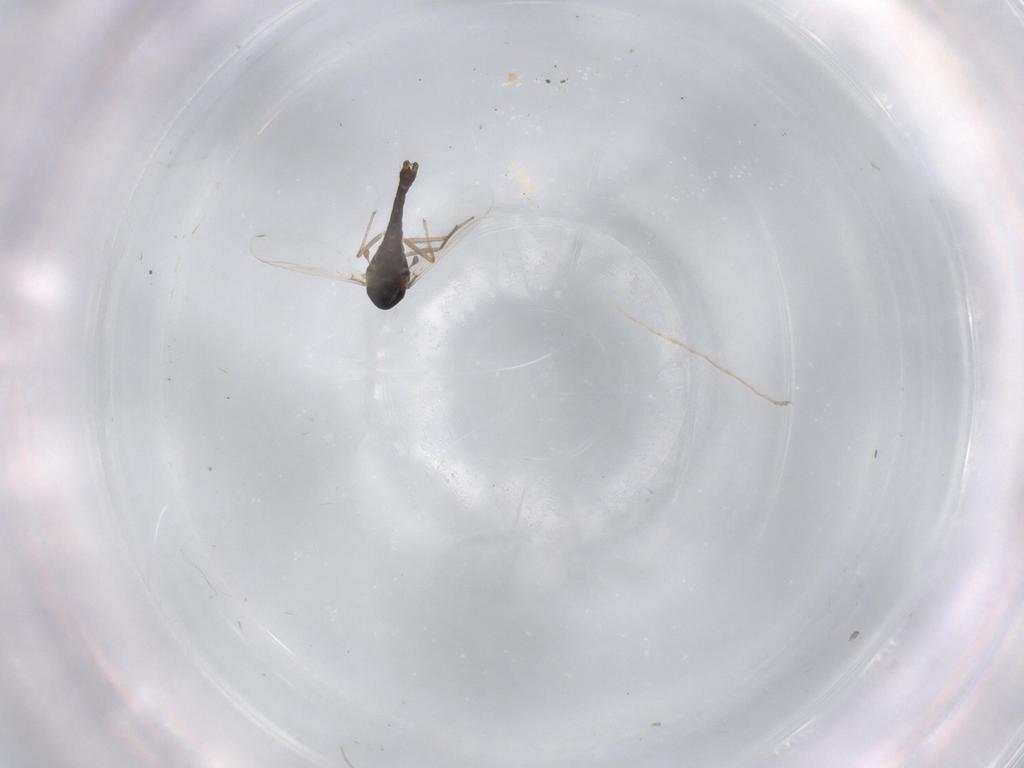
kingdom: Animalia
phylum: Arthropoda
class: Insecta
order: Diptera
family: Chironomidae
